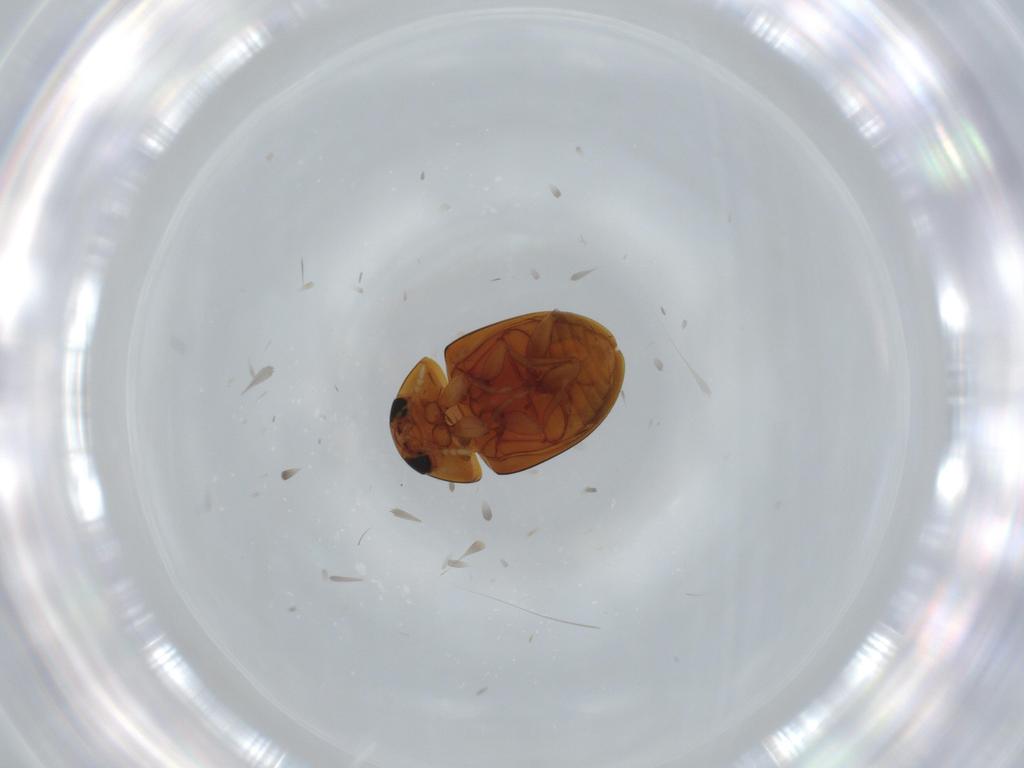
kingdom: Animalia
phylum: Arthropoda
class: Insecta
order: Coleoptera
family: Phalacridae
